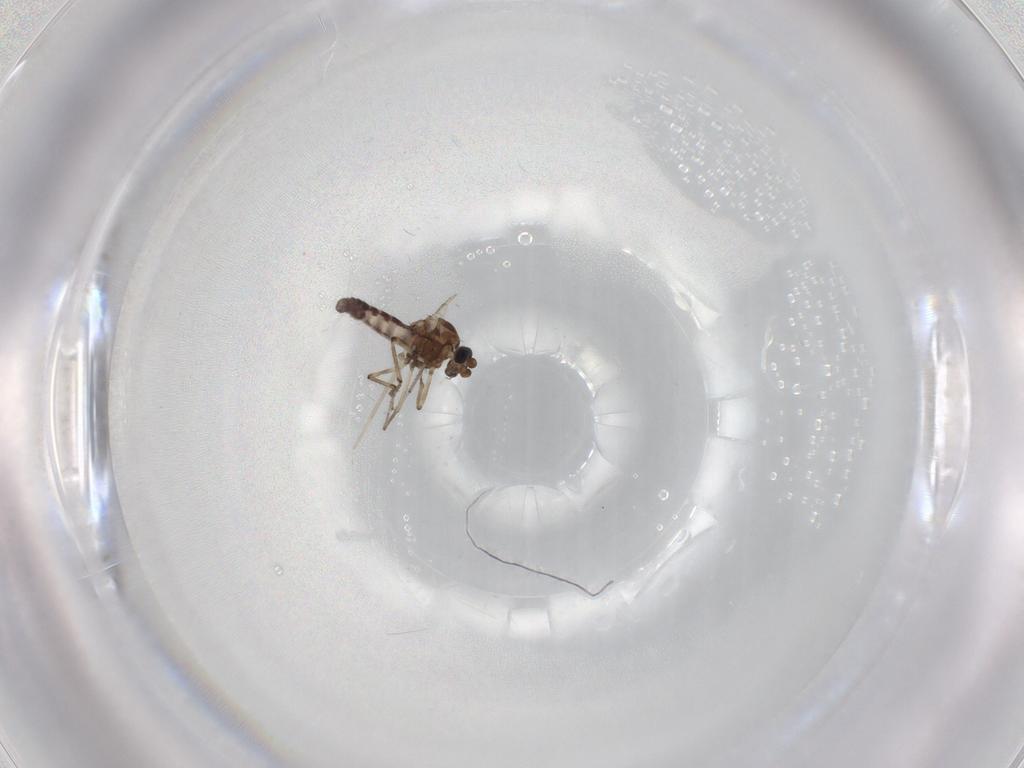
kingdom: Animalia
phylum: Arthropoda
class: Insecta
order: Diptera
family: Ceratopogonidae
